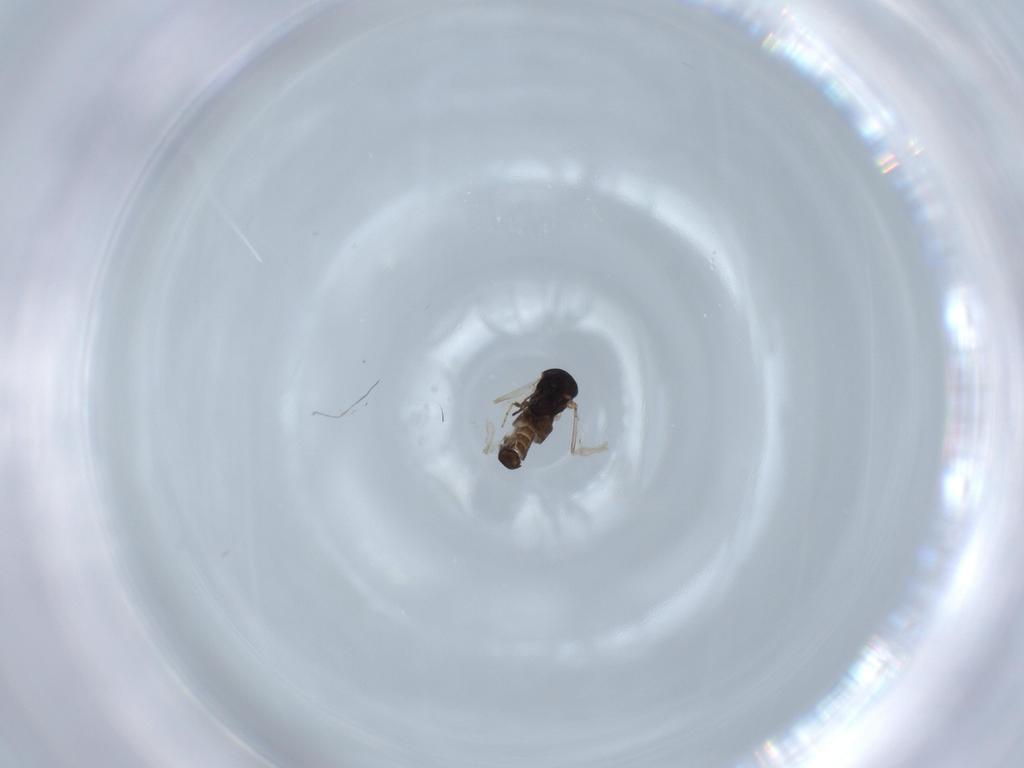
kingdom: Animalia
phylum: Arthropoda
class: Insecta
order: Diptera
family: Ceratopogonidae
